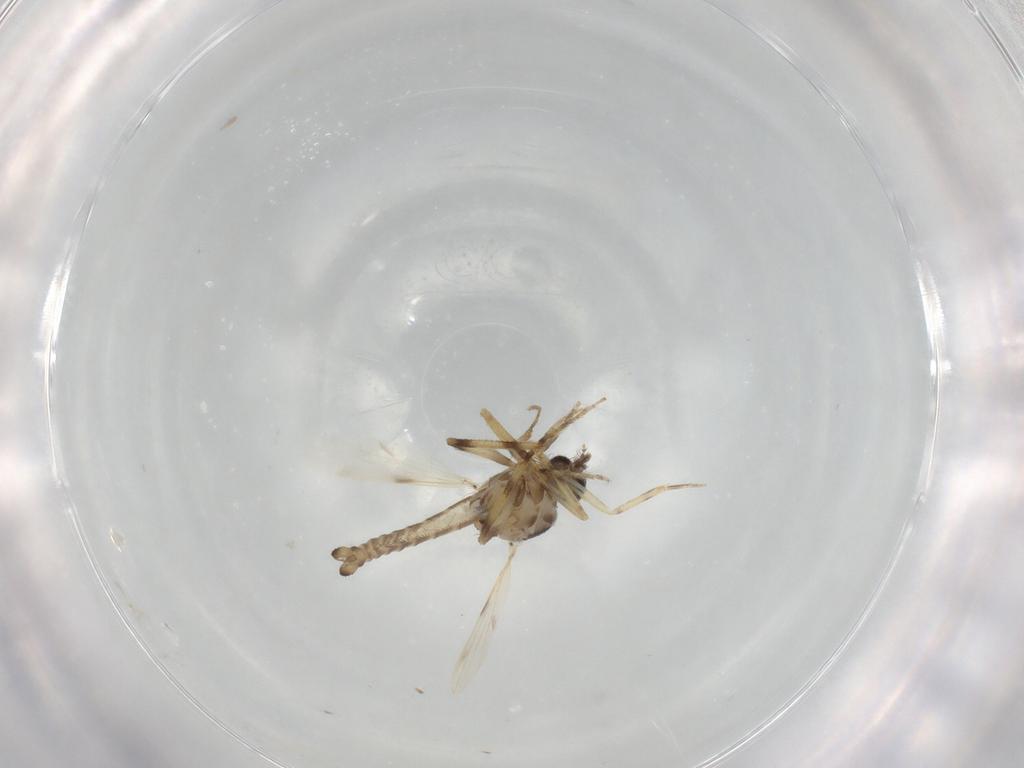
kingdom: Animalia
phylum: Arthropoda
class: Insecta
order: Diptera
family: Ceratopogonidae
